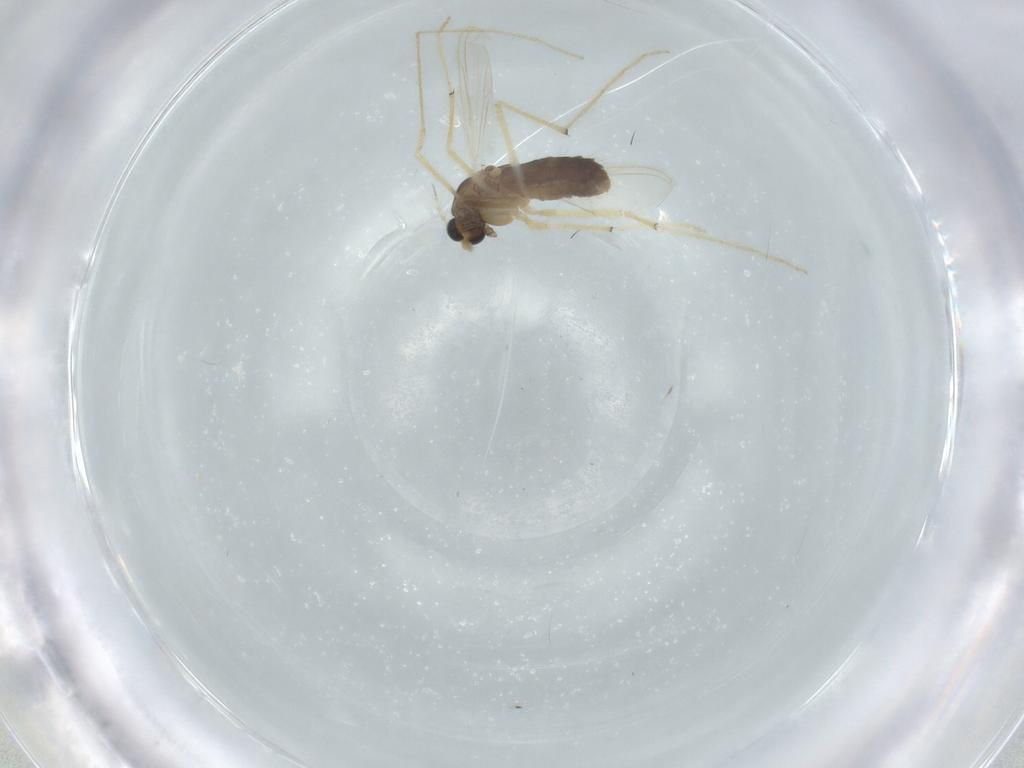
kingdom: Animalia
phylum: Arthropoda
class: Insecta
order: Diptera
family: Chironomidae
